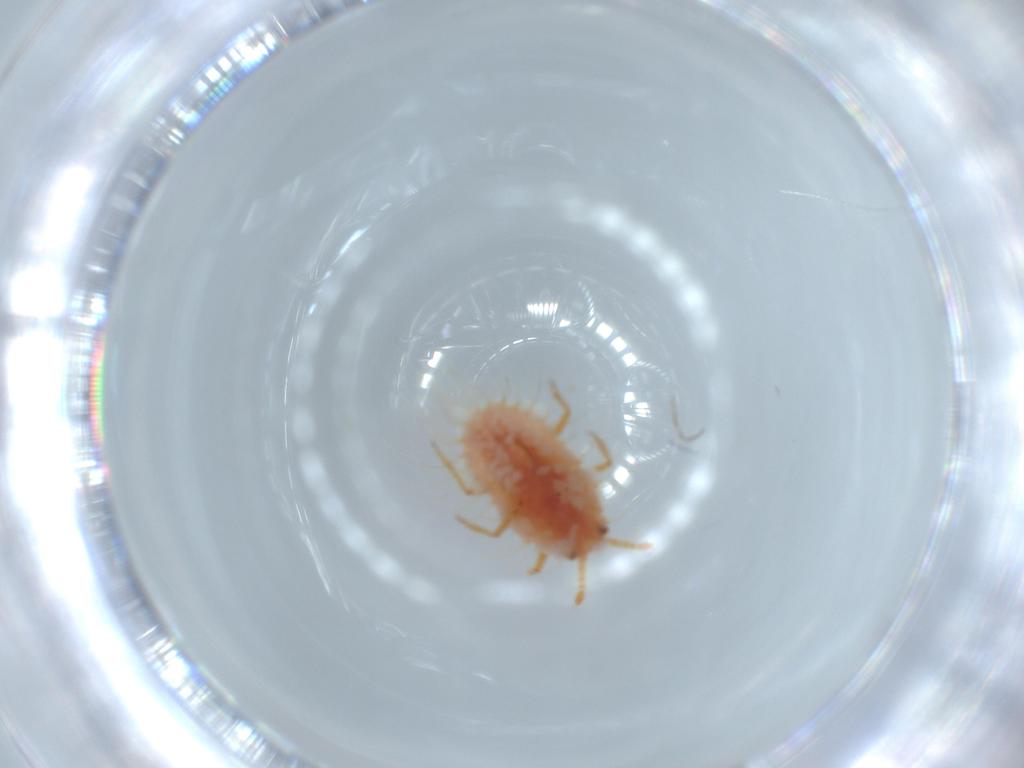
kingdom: Animalia
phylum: Arthropoda
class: Insecta
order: Hemiptera
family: Coccoidea_incertae_sedis
